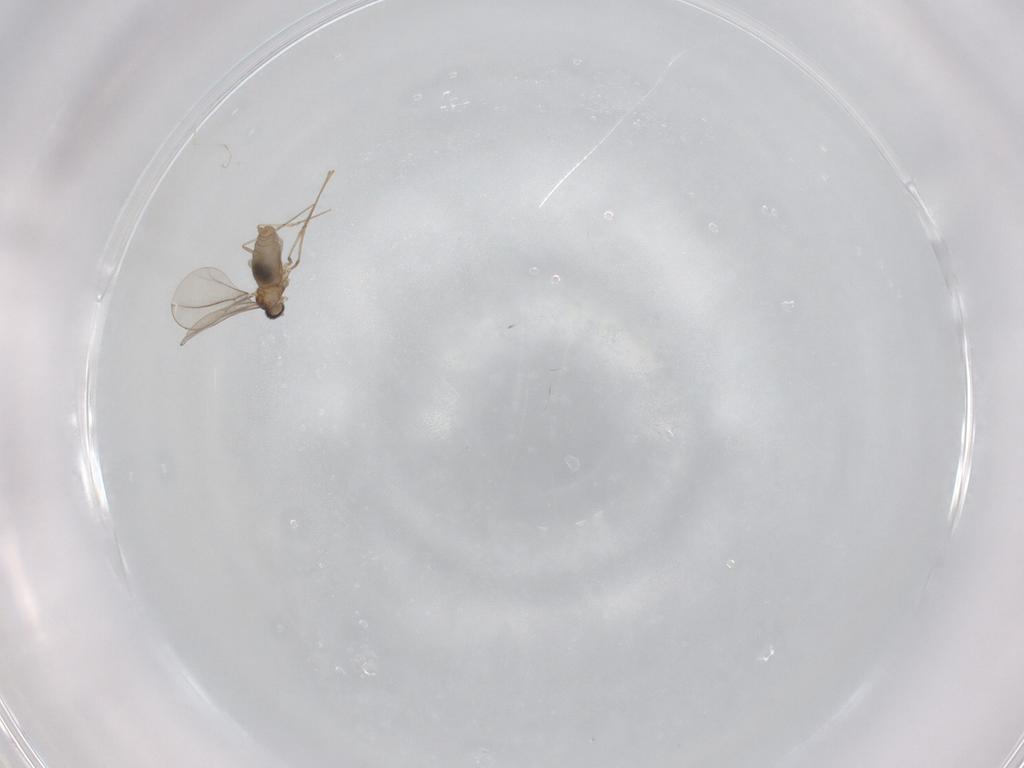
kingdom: Animalia
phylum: Arthropoda
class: Insecta
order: Diptera
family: Cecidomyiidae
